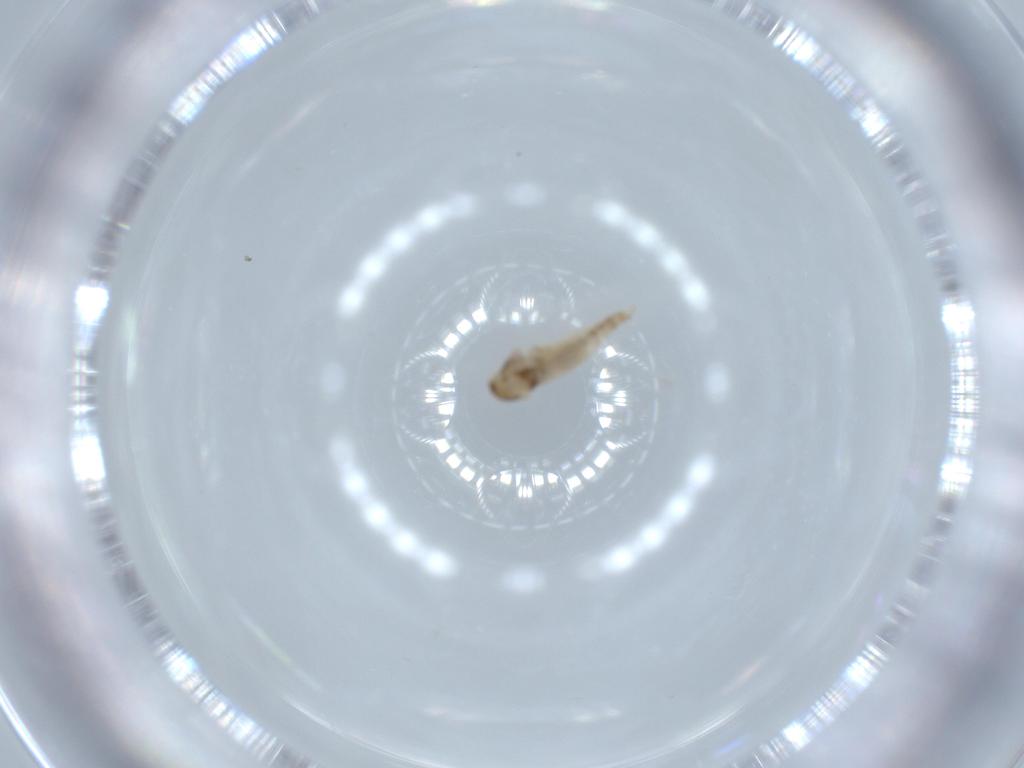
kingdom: Animalia
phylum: Arthropoda
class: Insecta
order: Diptera
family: Cecidomyiidae
